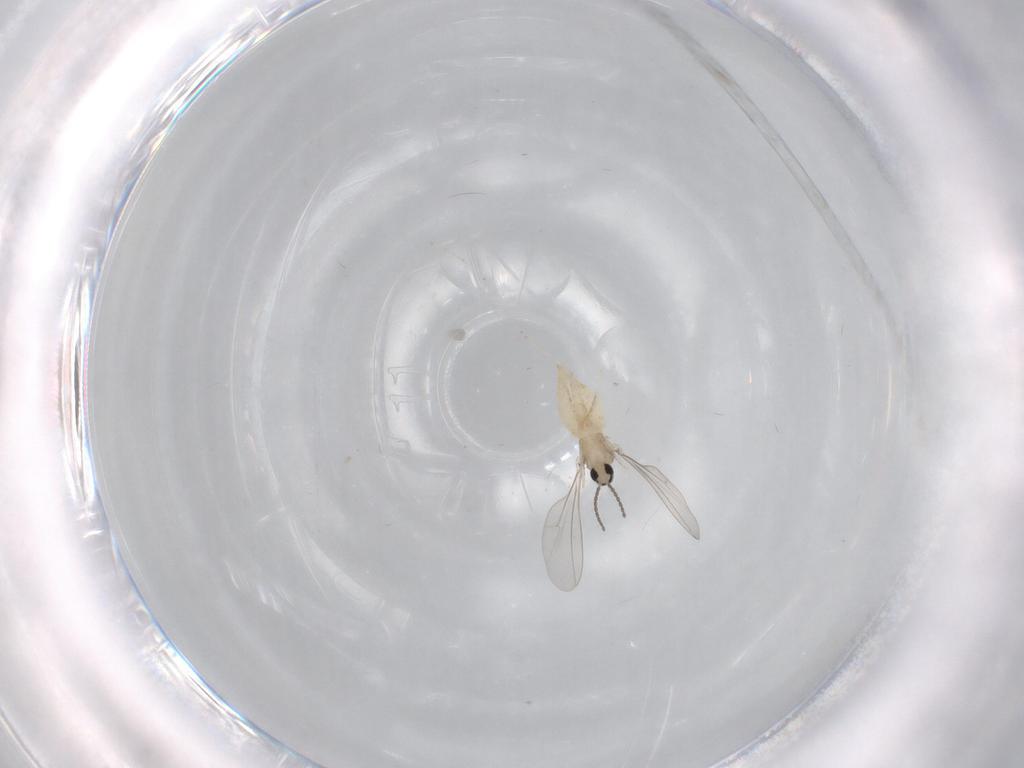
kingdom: Animalia
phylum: Arthropoda
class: Insecta
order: Diptera
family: Cecidomyiidae
